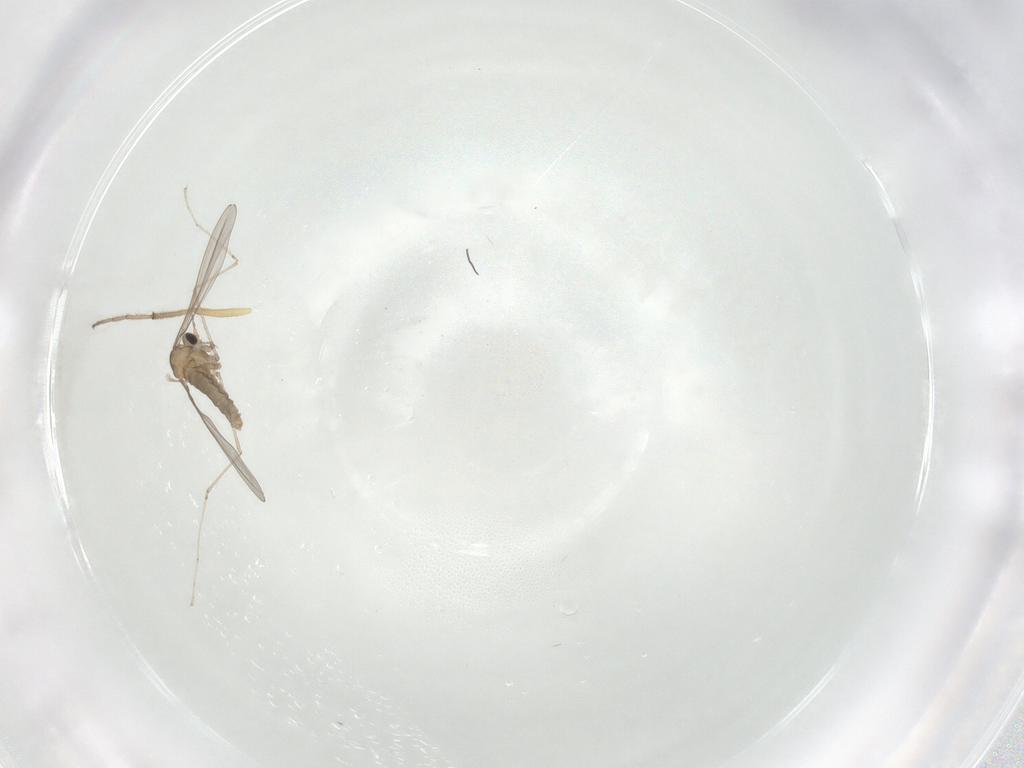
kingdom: Animalia
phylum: Arthropoda
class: Insecta
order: Diptera
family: Cecidomyiidae
